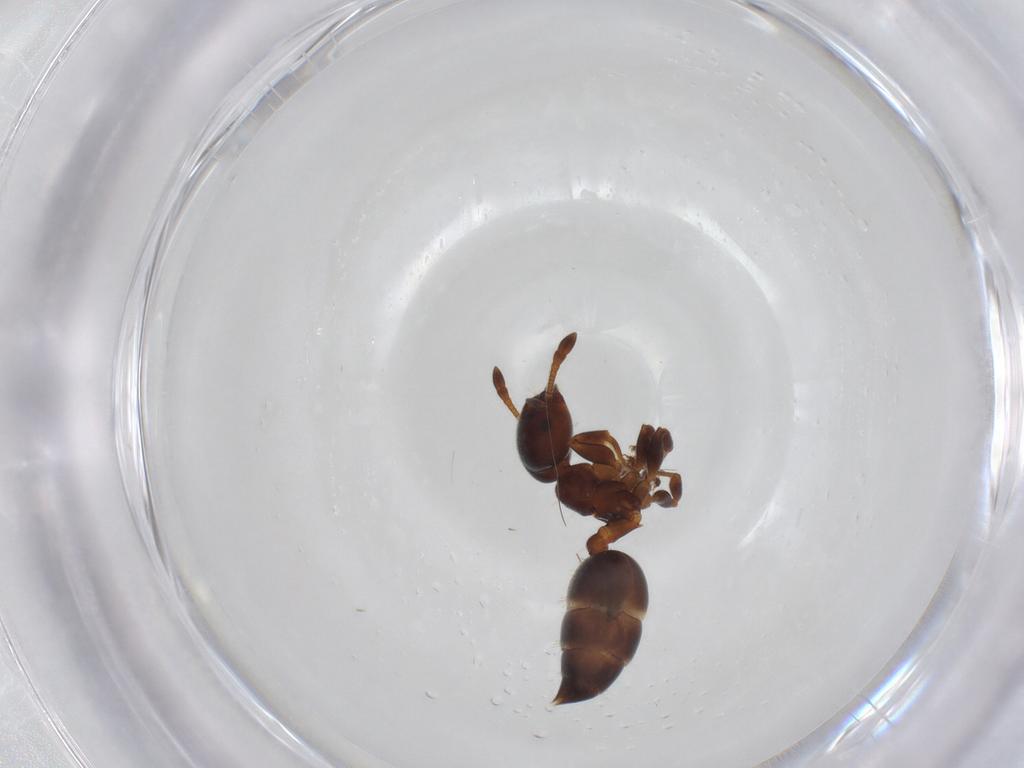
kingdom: Animalia
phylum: Arthropoda
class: Insecta
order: Hymenoptera
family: Formicidae
